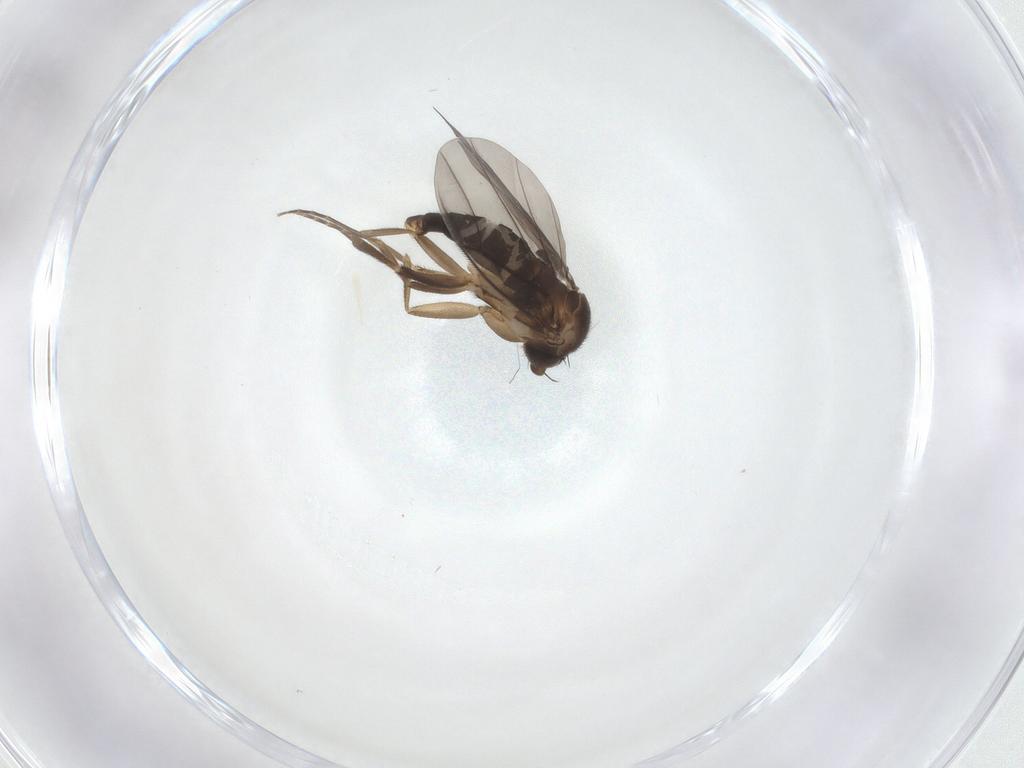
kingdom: Animalia
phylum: Arthropoda
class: Insecta
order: Diptera
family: Phoridae
